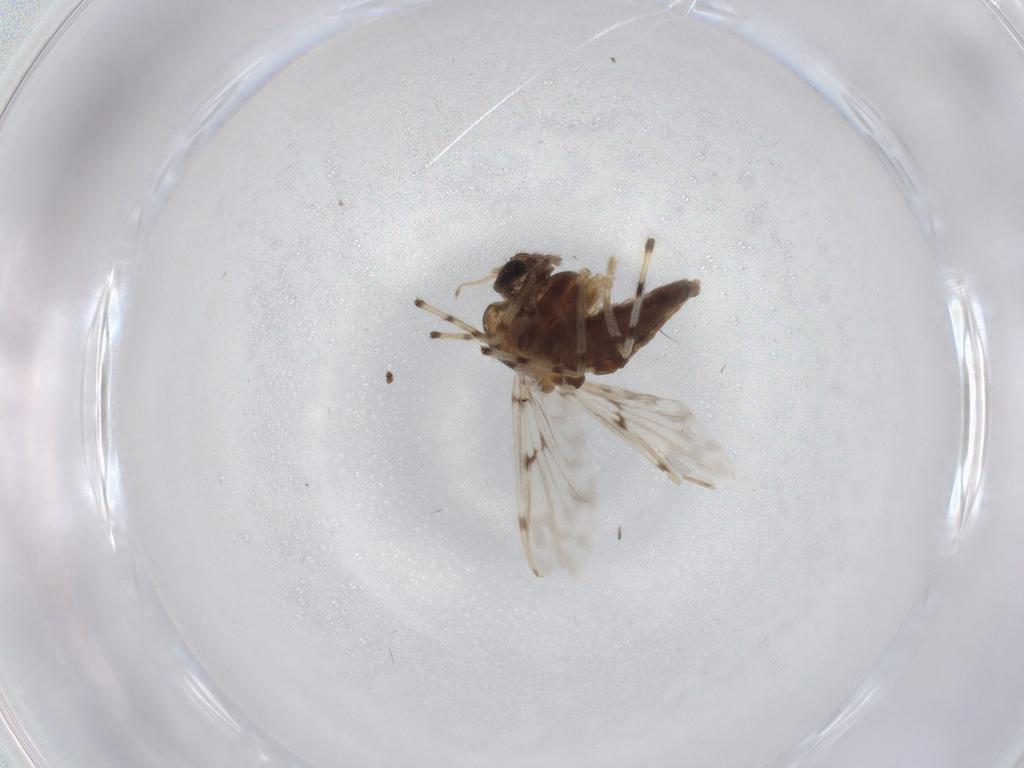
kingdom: Animalia
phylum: Arthropoda
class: Insecta
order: Diptera
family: Chironomidae
